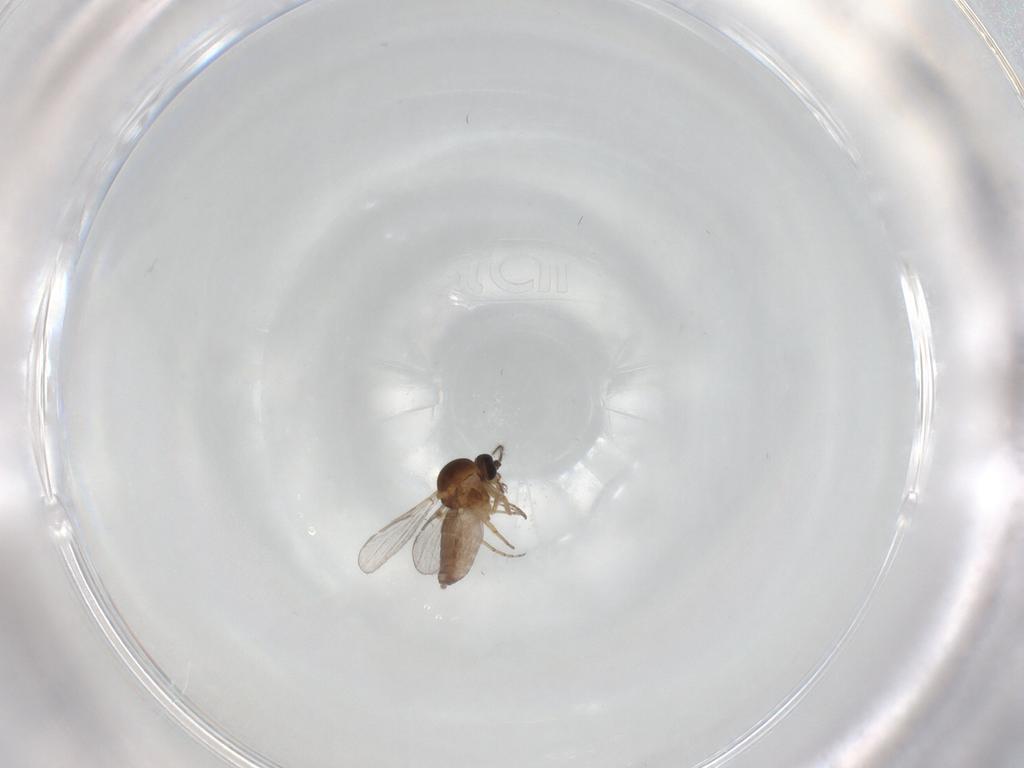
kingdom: Animalia
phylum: Arthropoda
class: Insecta
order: Diptera
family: Ceratopogonidae
